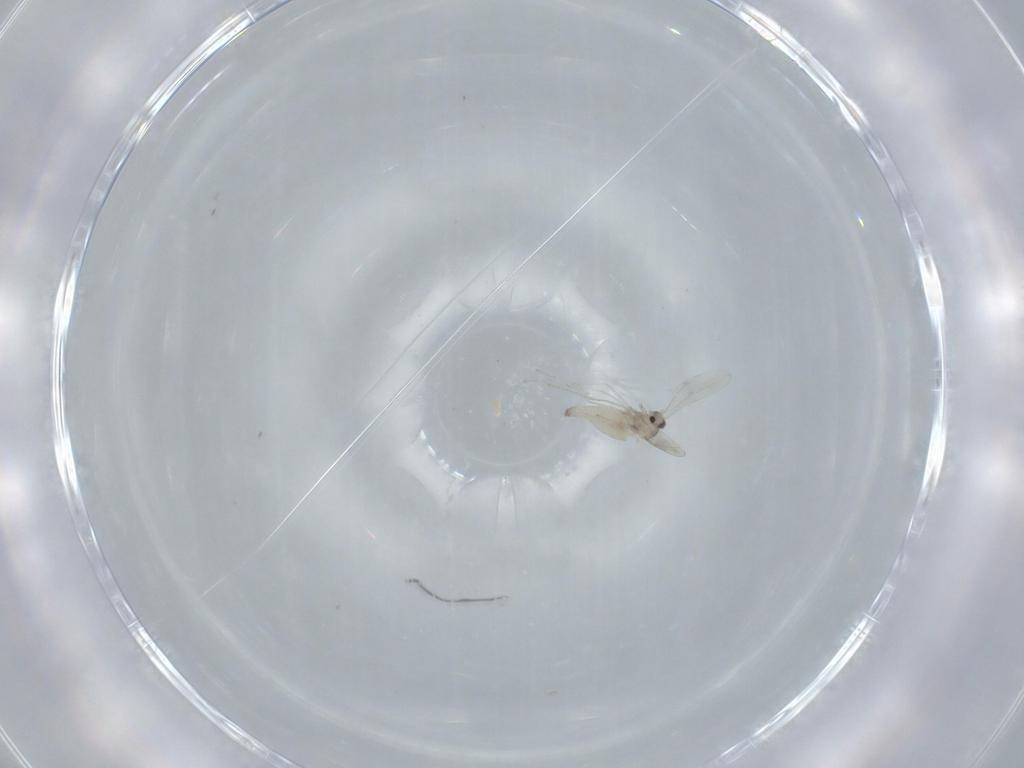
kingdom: Animalia
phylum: Arthropoda
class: Insecta
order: Diptera
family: Cecidomyiidae
